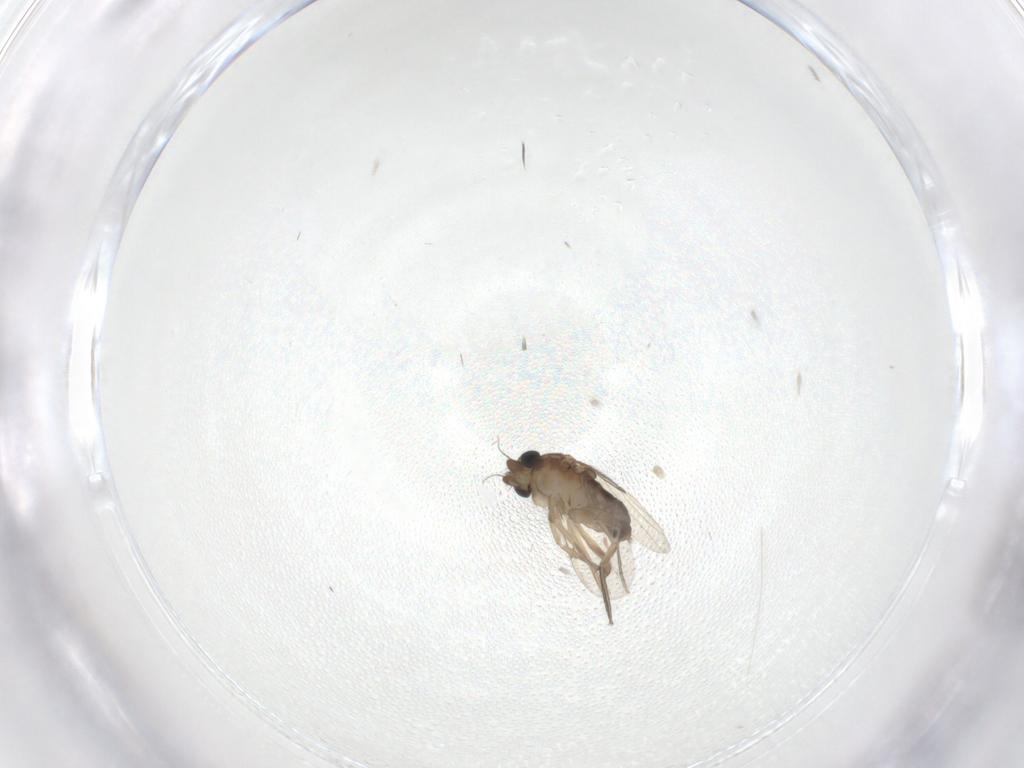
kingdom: Animalia
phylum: Arthropoda
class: Insecta
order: Diptera
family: Phoridae
